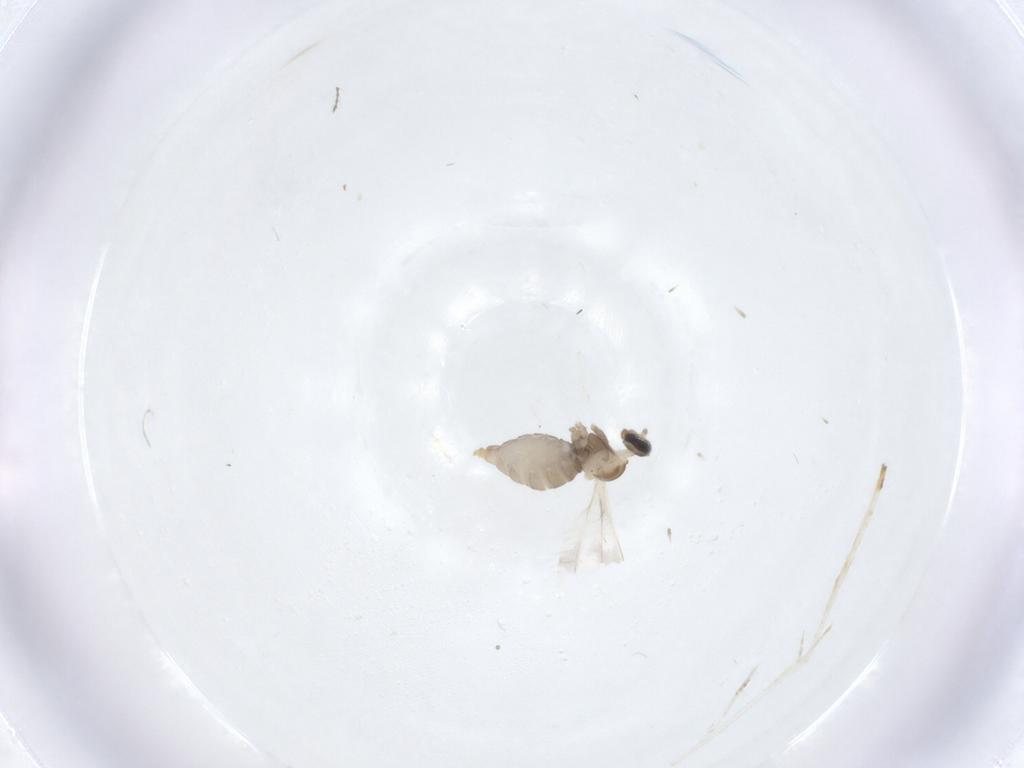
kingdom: Animalia
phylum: Arthropoda
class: Insecta
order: Diptera
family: Cecidomyiidae
